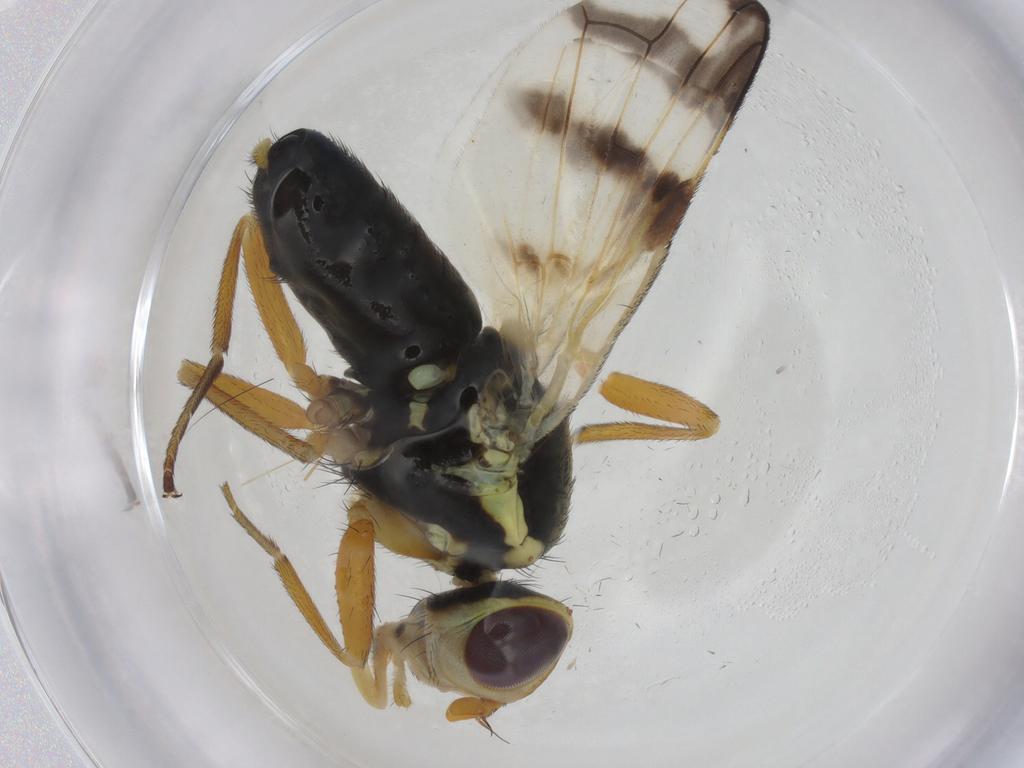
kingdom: Animalia
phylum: Arthropoda
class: Insecta
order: Diptera
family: Tephritidae
